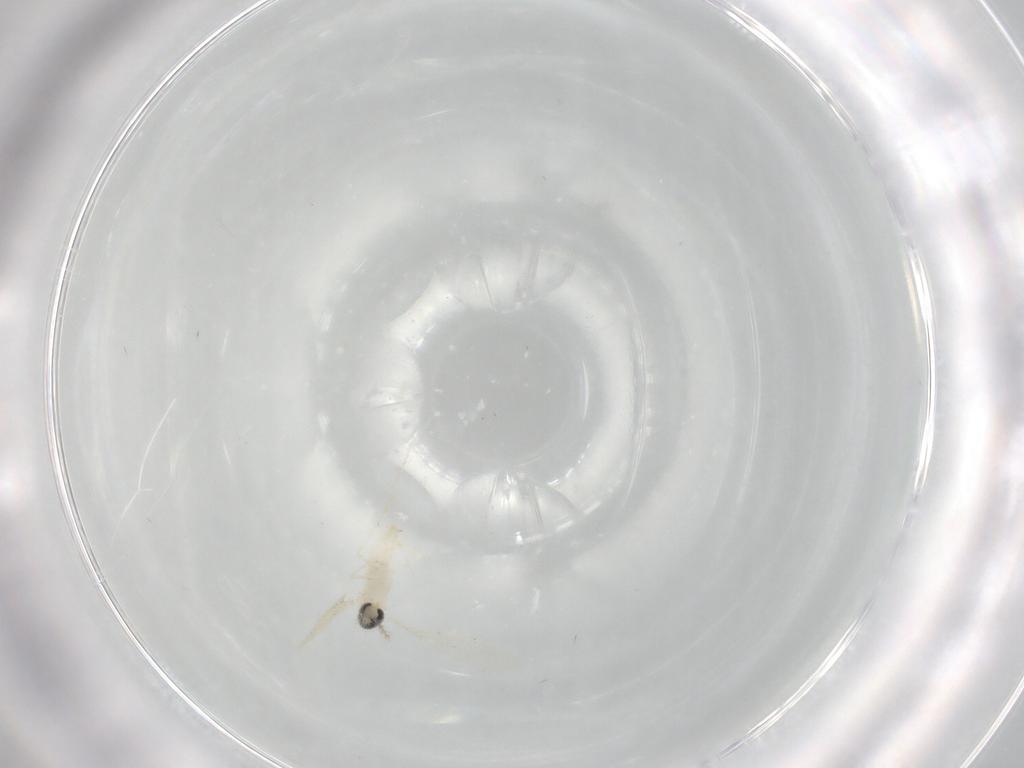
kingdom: Animalia
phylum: Arthropoda
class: Insecta
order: Diptera
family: Cecidomyiidae
